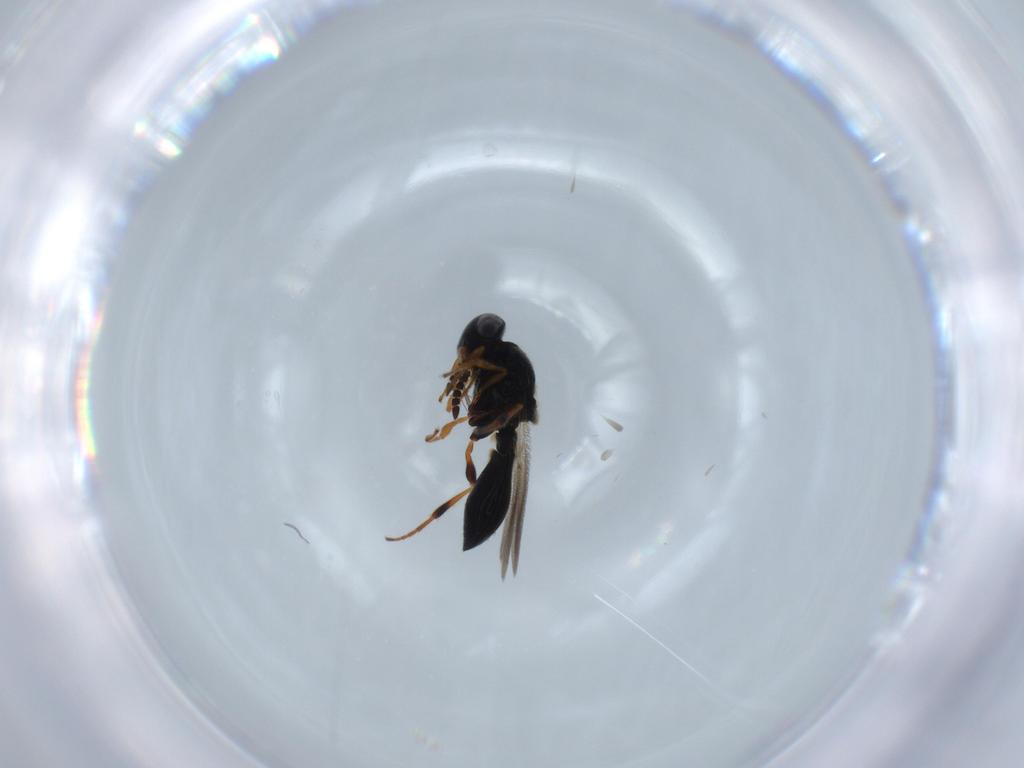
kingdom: Animalia
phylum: Arthropoda
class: Insecta
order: Hymenoptera
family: Platygastridae
